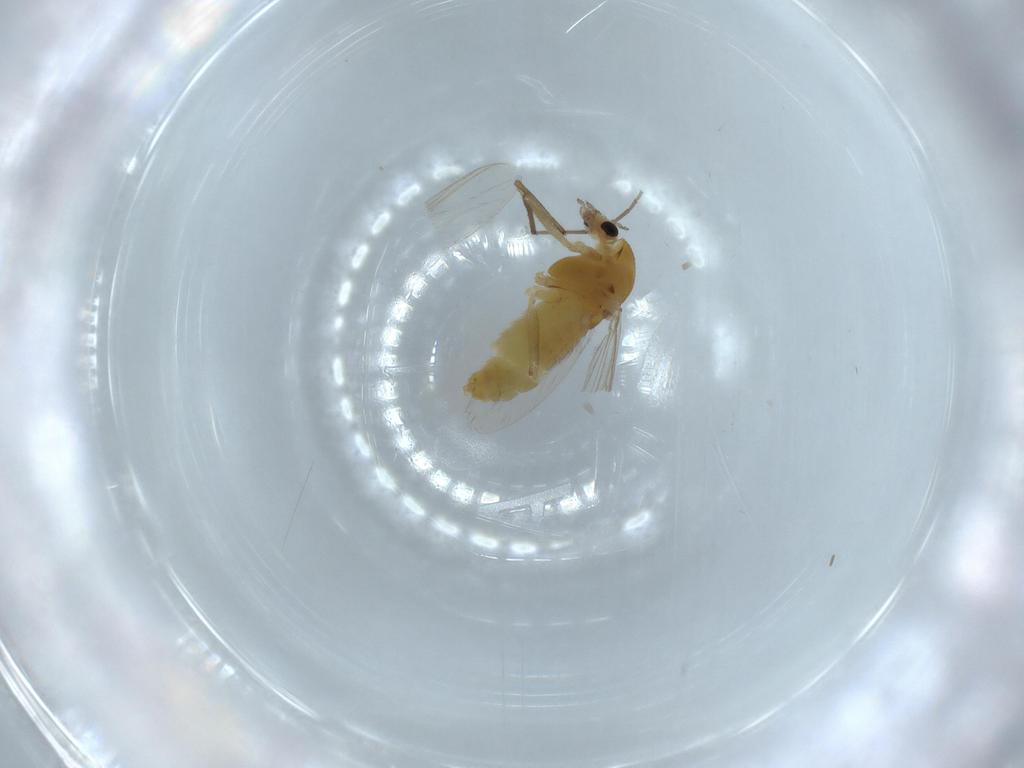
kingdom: Animalia
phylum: Arthropoda
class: Insecta
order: Diptera
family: Chironomidae
